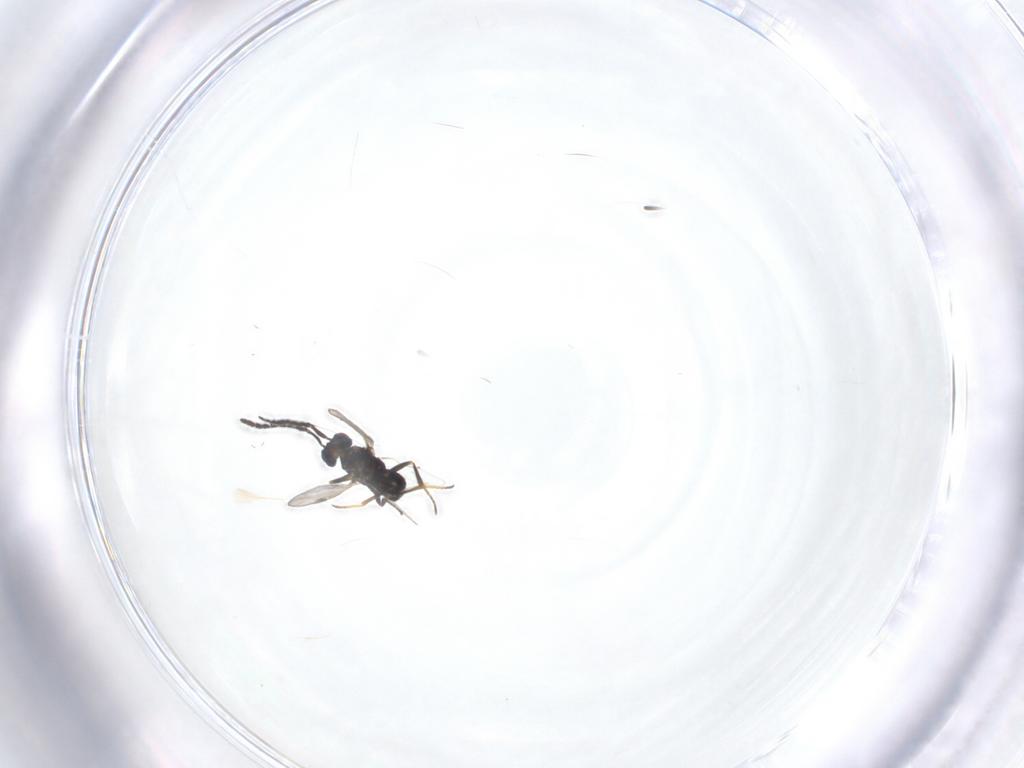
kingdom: Animalia
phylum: Arthropoda
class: Insecta
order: Hymenoptera
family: Encyrtidae
